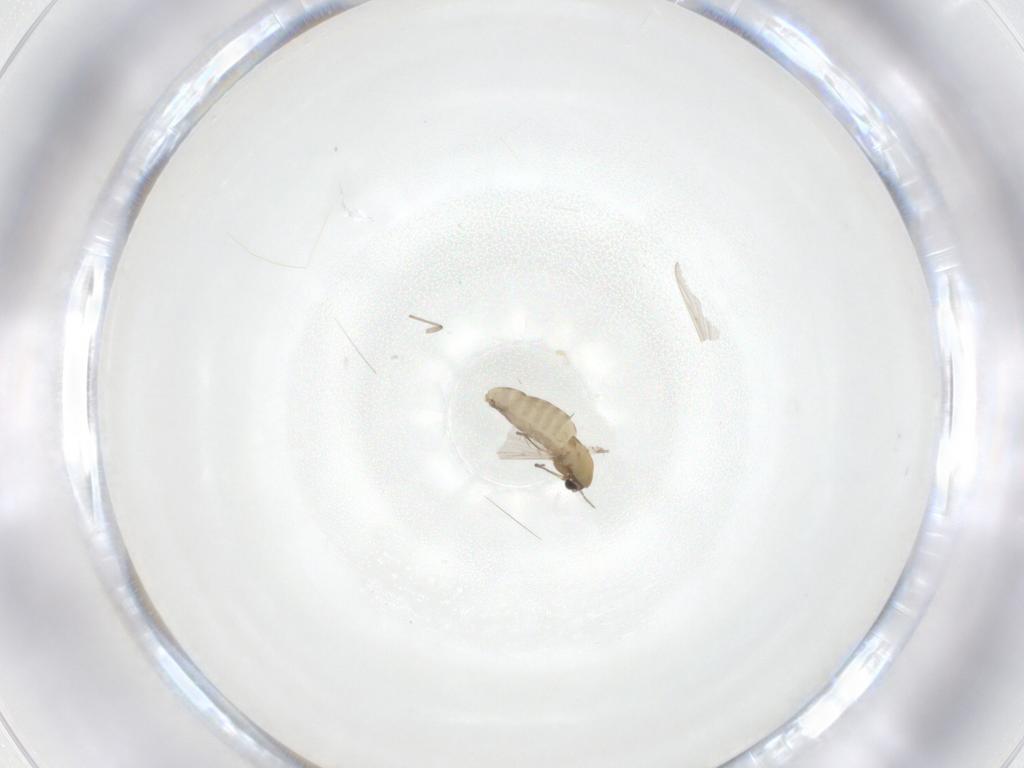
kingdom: Animalia
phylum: Arthropoda
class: Insecta
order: Diptera
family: Chironomidae
